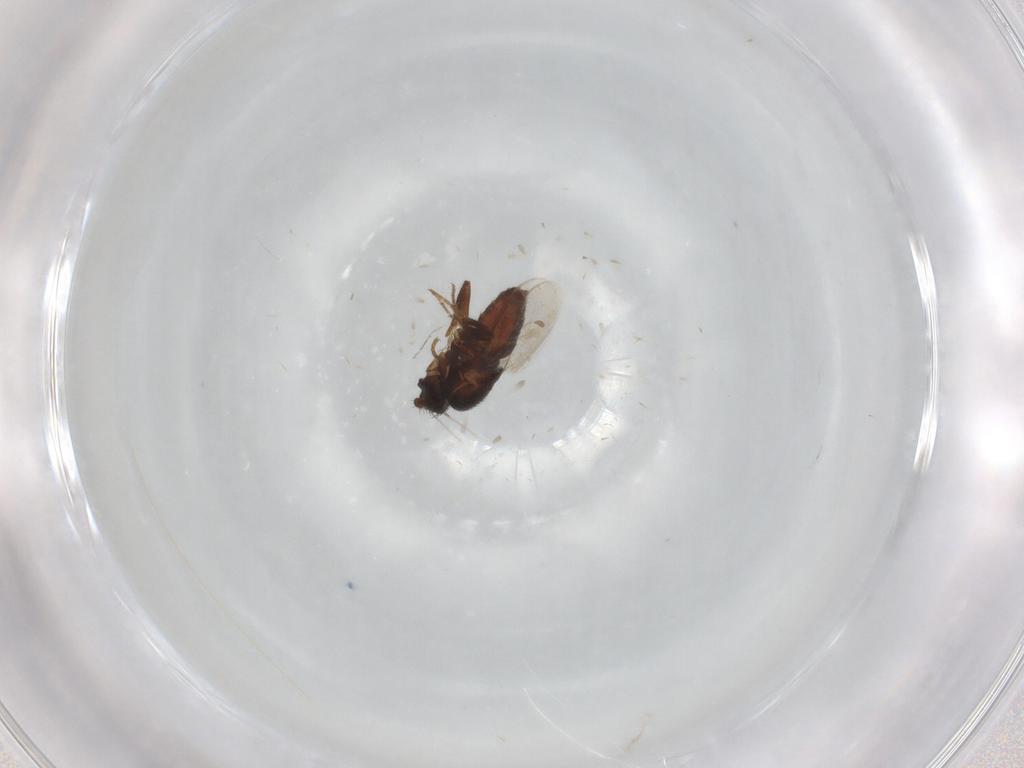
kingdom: Animalia
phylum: Arthropoda
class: Insecta
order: Diptera
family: Sphaeroceridae
